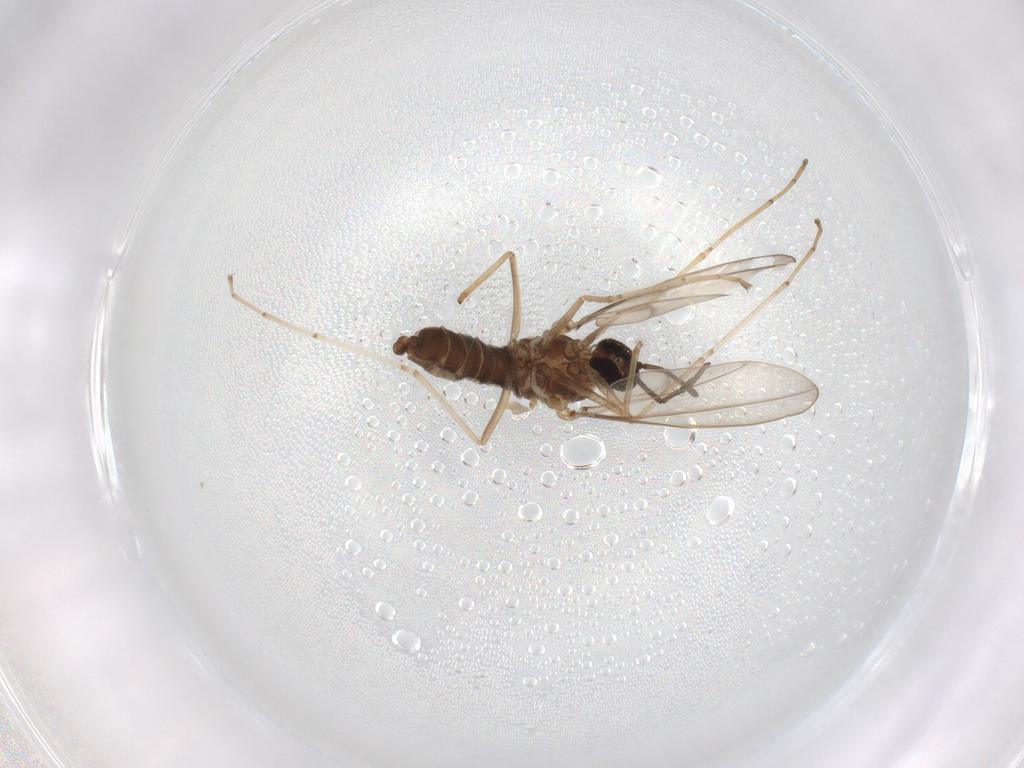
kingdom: Animalia
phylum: Arthropoda
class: Insecta
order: Diptera
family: Cecidomyiidae
